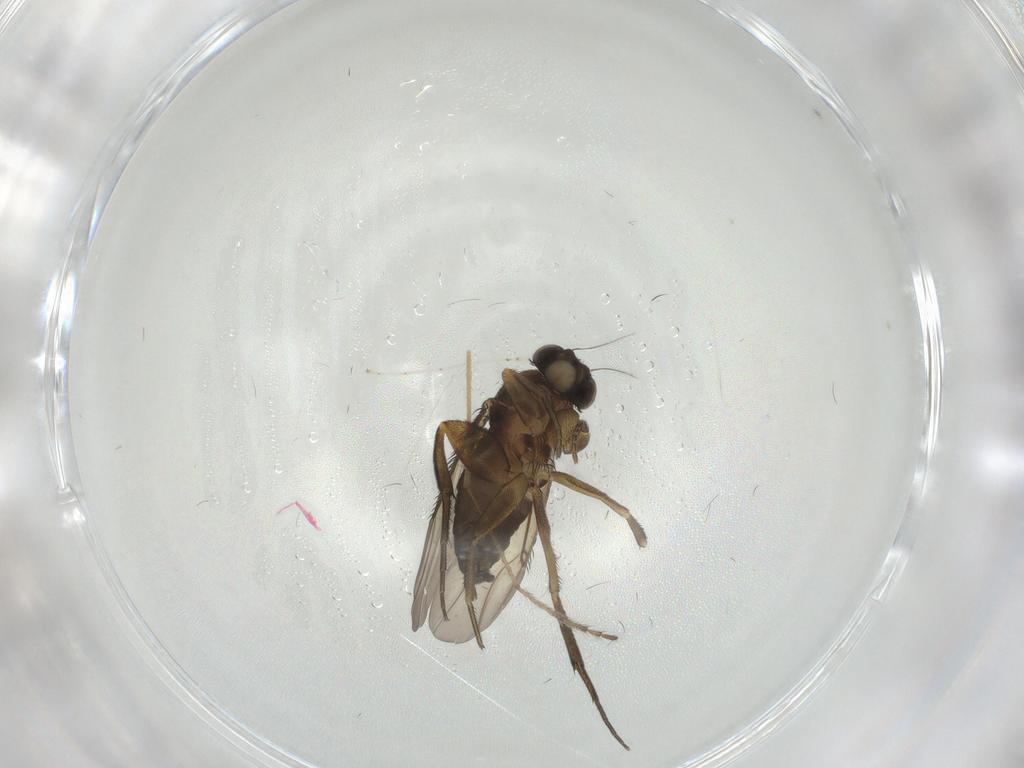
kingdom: Animalia
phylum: Arthropoda
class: Insecta
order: Diptera
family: Phoridae
